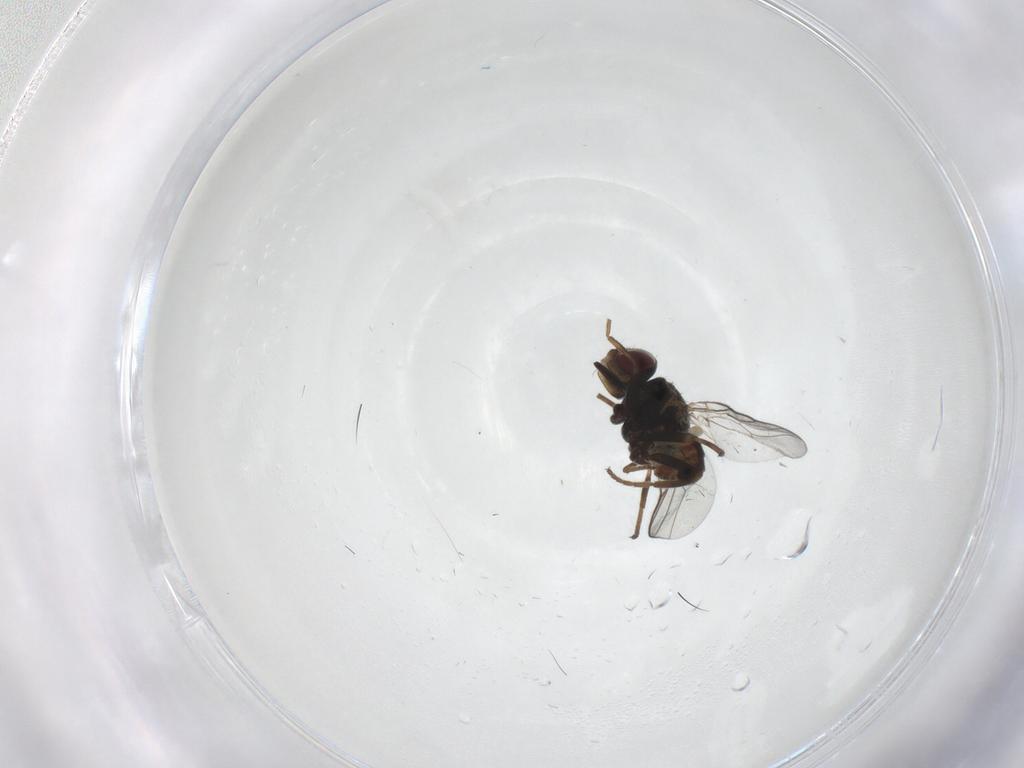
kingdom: Animalia
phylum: Arthropoda
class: Insecta
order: Diptera
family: Cecidomyiidae
